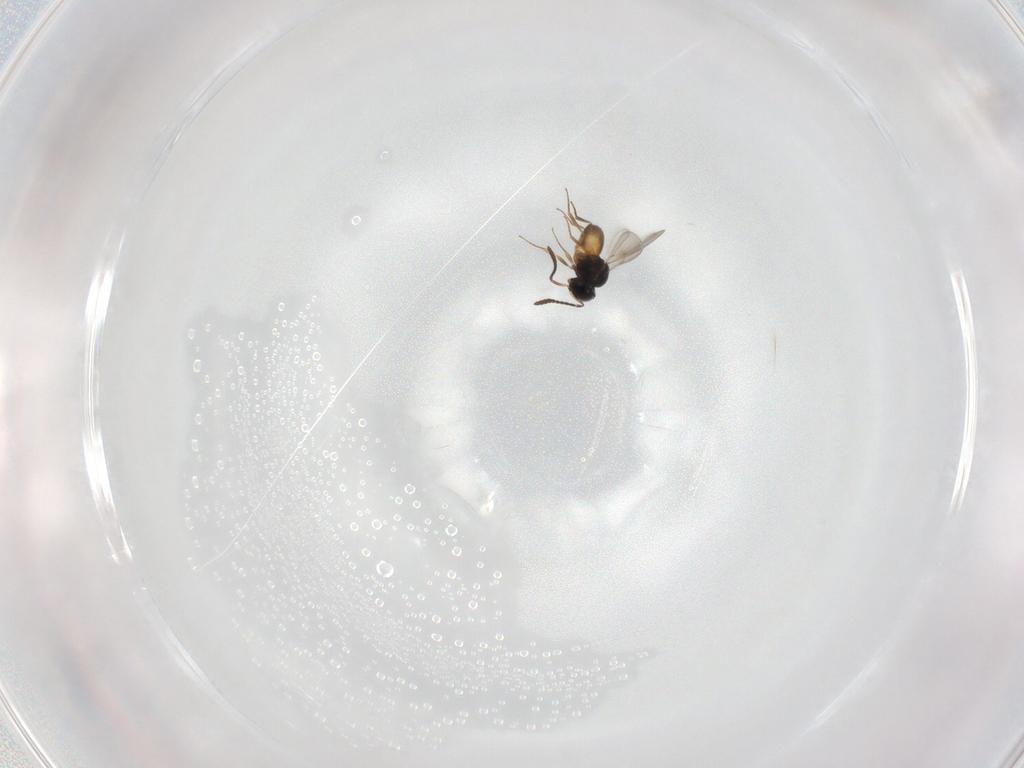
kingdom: Animalia
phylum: Arthropoda
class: Insecta
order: Hymenoptera
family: Scelionidae
